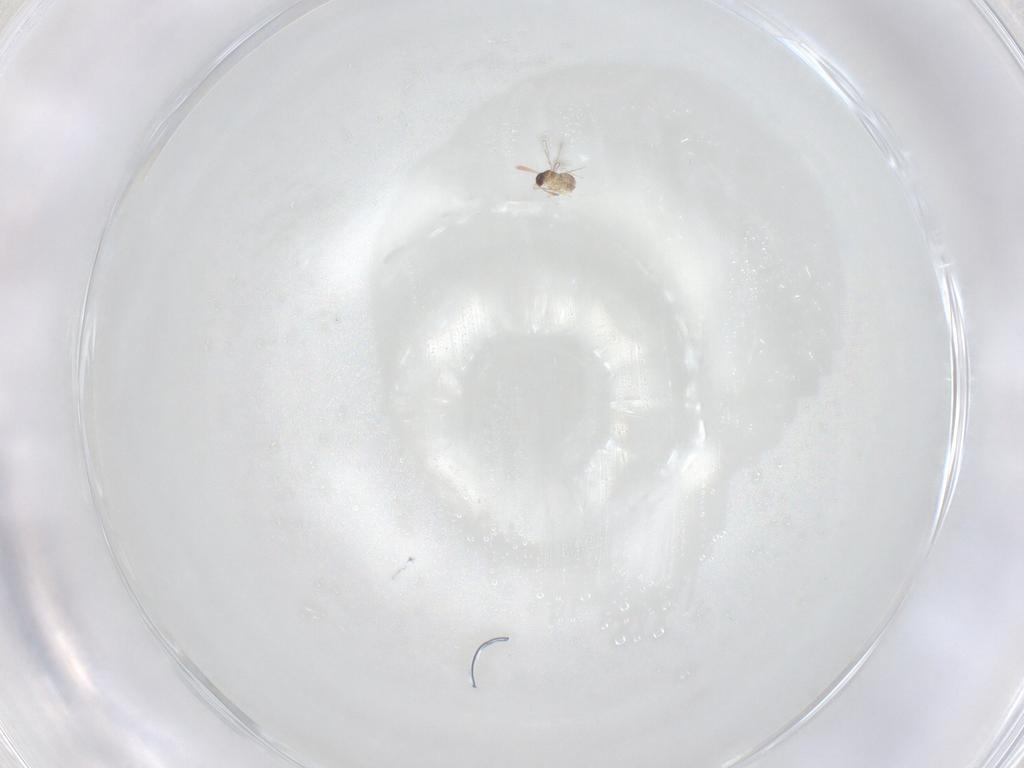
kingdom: Animalia
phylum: Arthropoda
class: Insecta
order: Hymenoptera
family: Mymaridae
